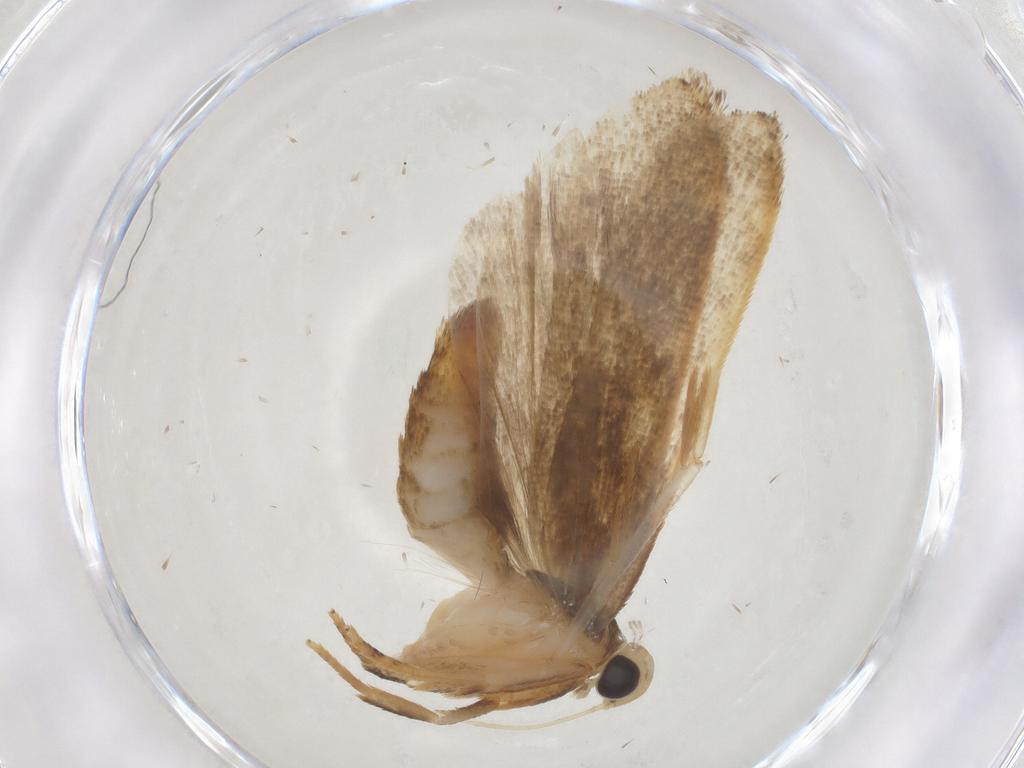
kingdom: Animalia
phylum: Arthropoda
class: Insecta
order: Lepidoptera
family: Gelechiidae
